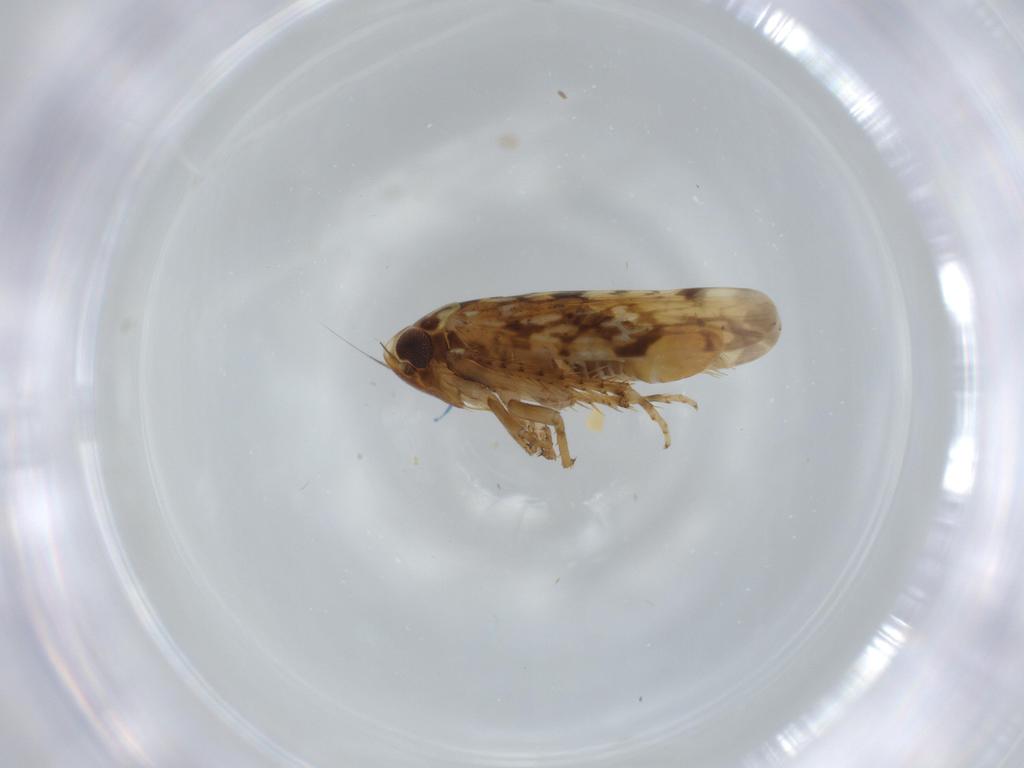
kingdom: Animalia
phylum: Arthropoda
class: Insecta
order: Hemiptera
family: Cicadellidae
